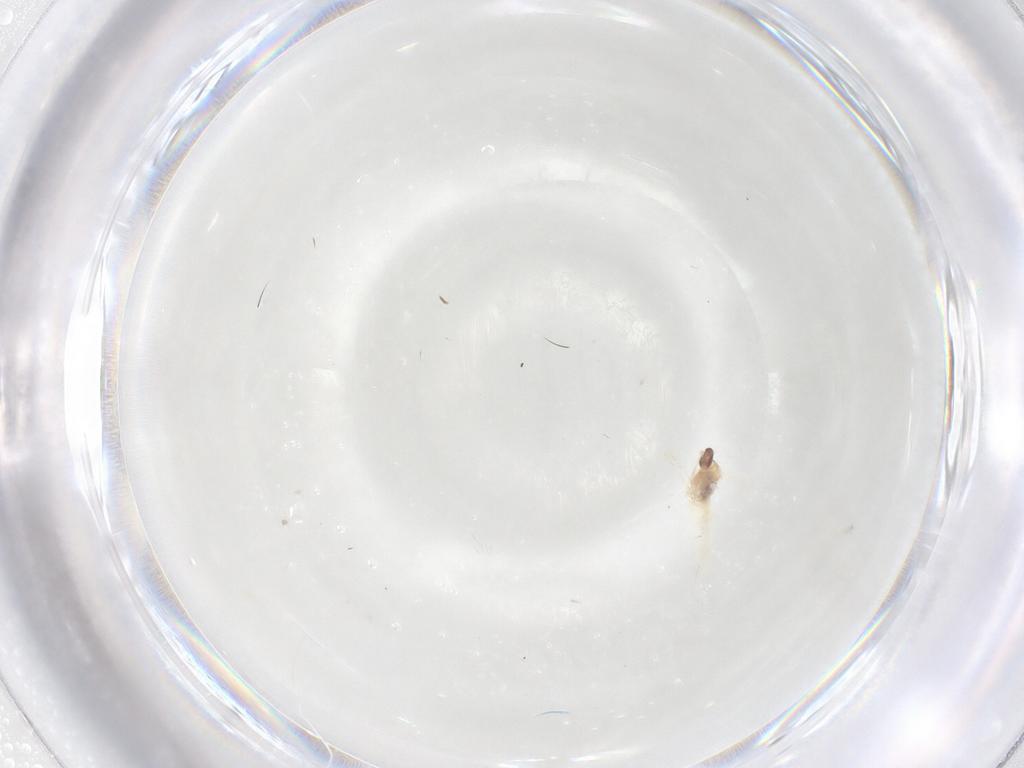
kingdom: Animalia
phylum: Arthropoda
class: Insecta
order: Diptera
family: Cecidomyiidae
